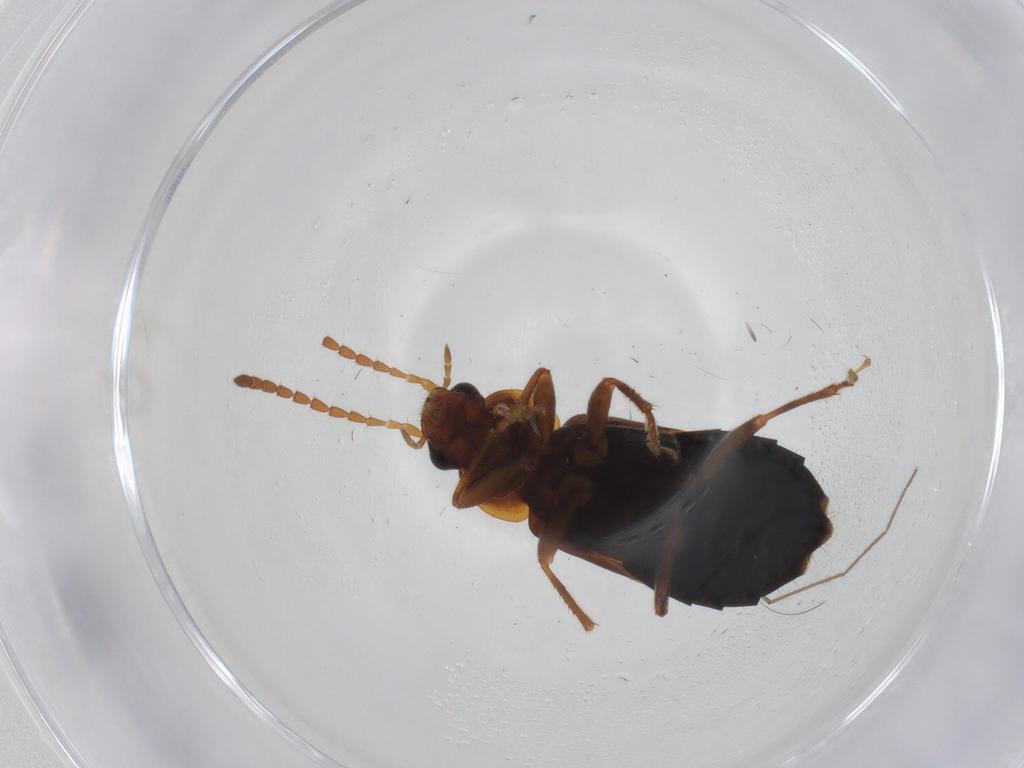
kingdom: Animalia
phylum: Arthropoda
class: Insecta
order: Coleoptera
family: Staphylinidae
